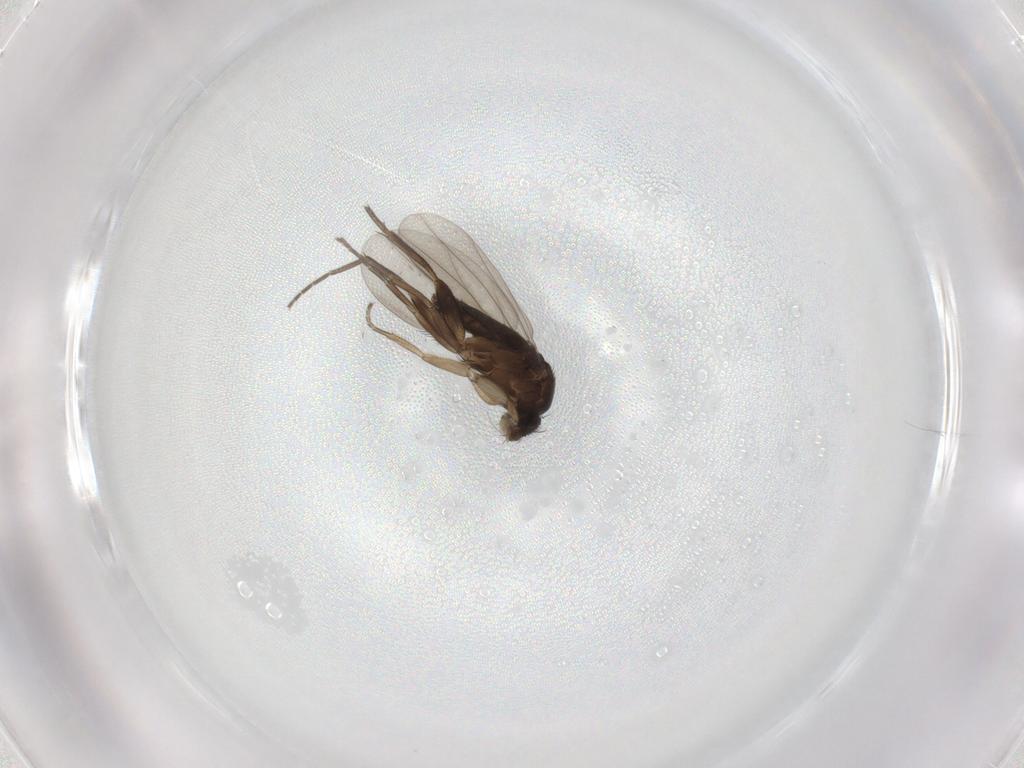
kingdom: Animalia
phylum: Arthropoda
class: Insecta
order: Diptera
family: Phoridae
